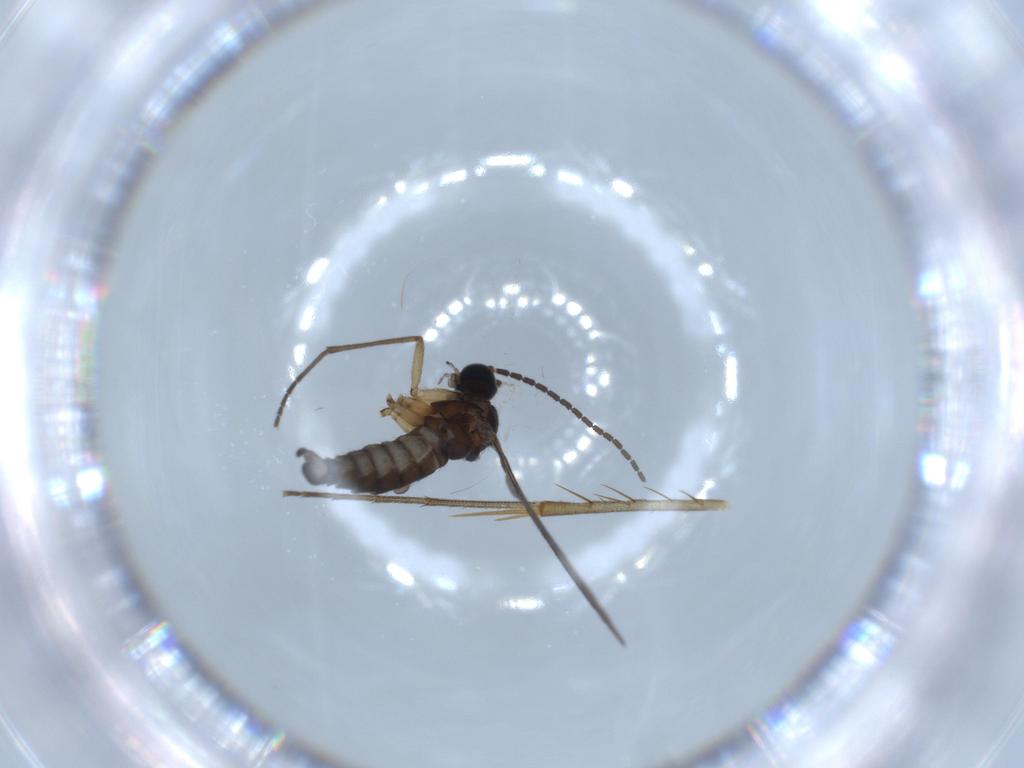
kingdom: Animalia
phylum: Arthropoda
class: Insecta
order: Diptera
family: Sciaridae
